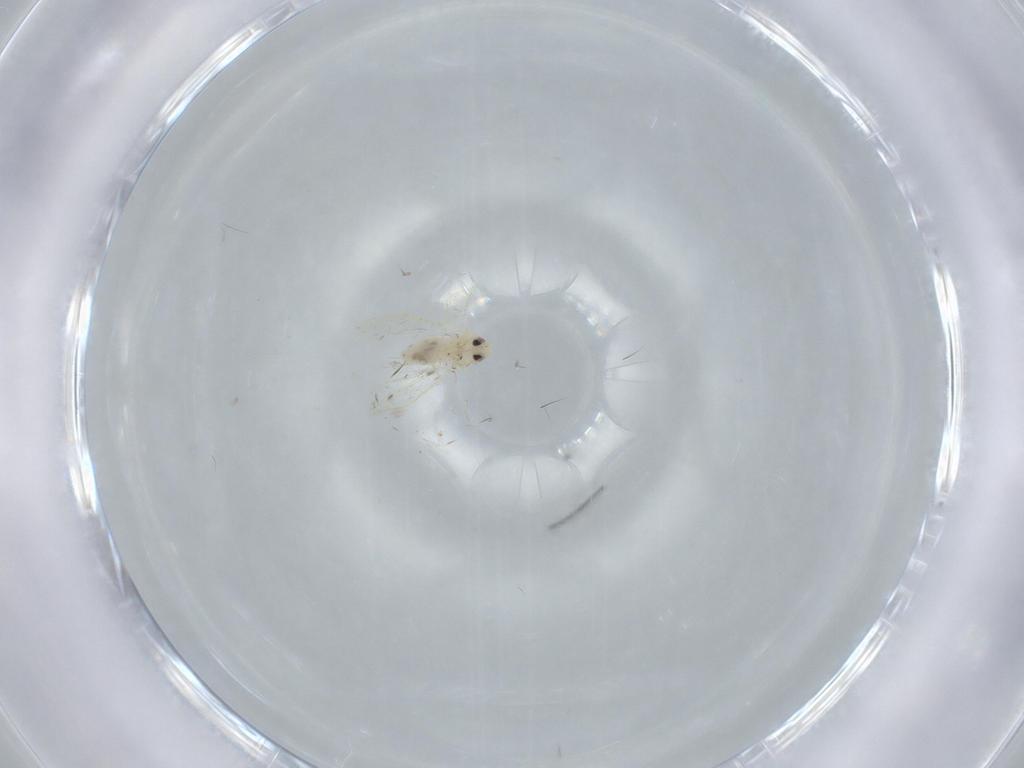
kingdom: Animalia
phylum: Arthropoda
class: Insecta
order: Hemiptera
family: Aleyrodidae
